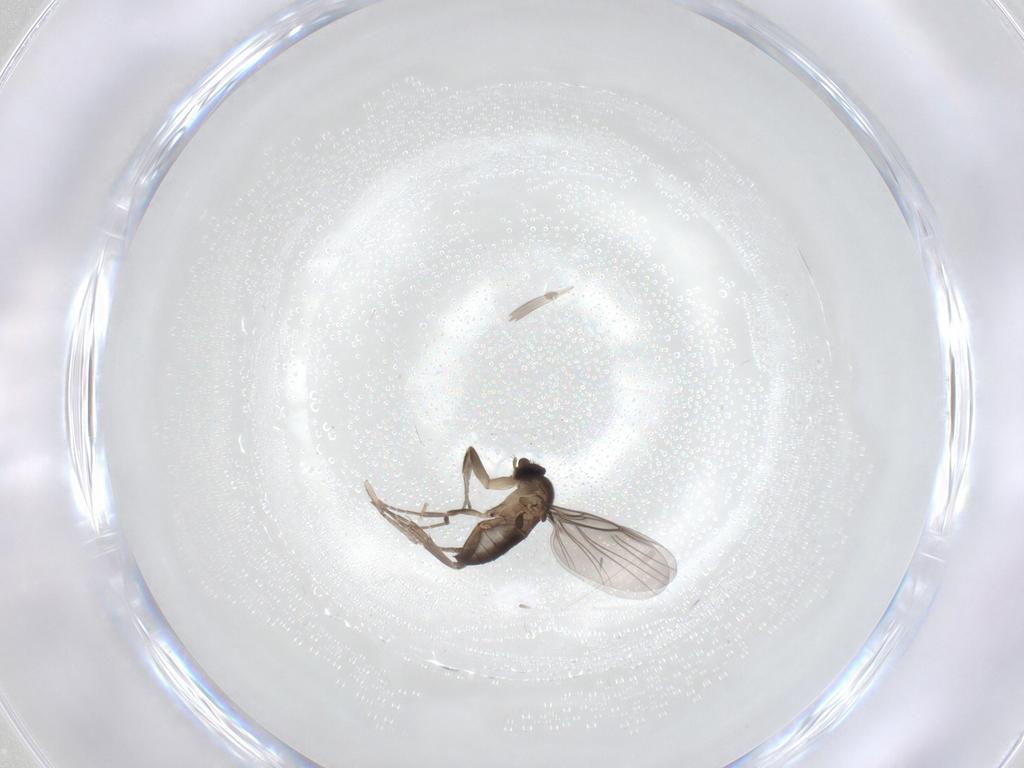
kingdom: Animalia
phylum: Arthropoda
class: Insecta
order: Diptera
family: Phoridae
